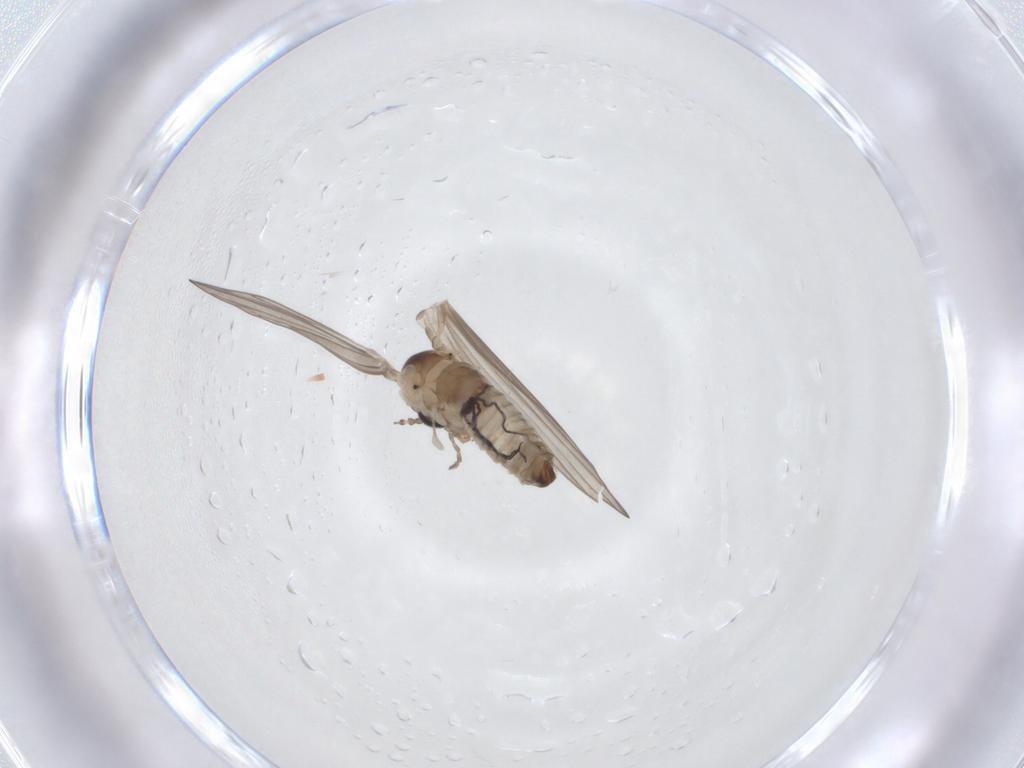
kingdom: Animalia
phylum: Arthropoda
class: Insecta
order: Diptera
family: Psychodidae
